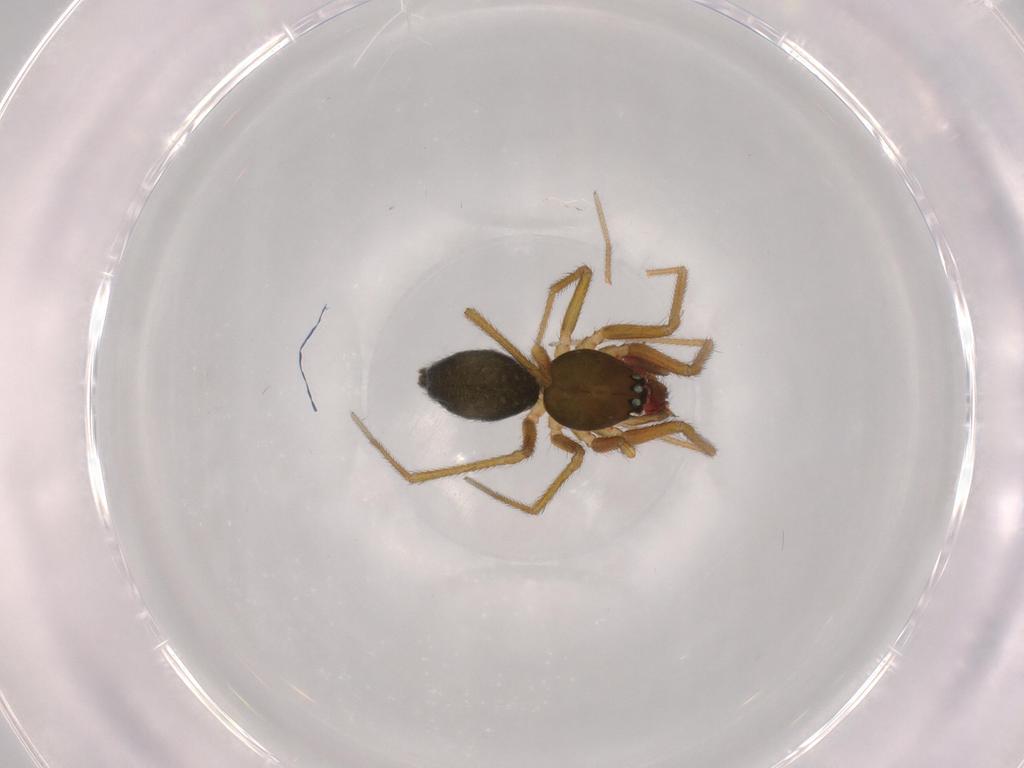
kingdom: Animalia
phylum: Arthropoda
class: Arachnida
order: Araneae
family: Linyphiidae
